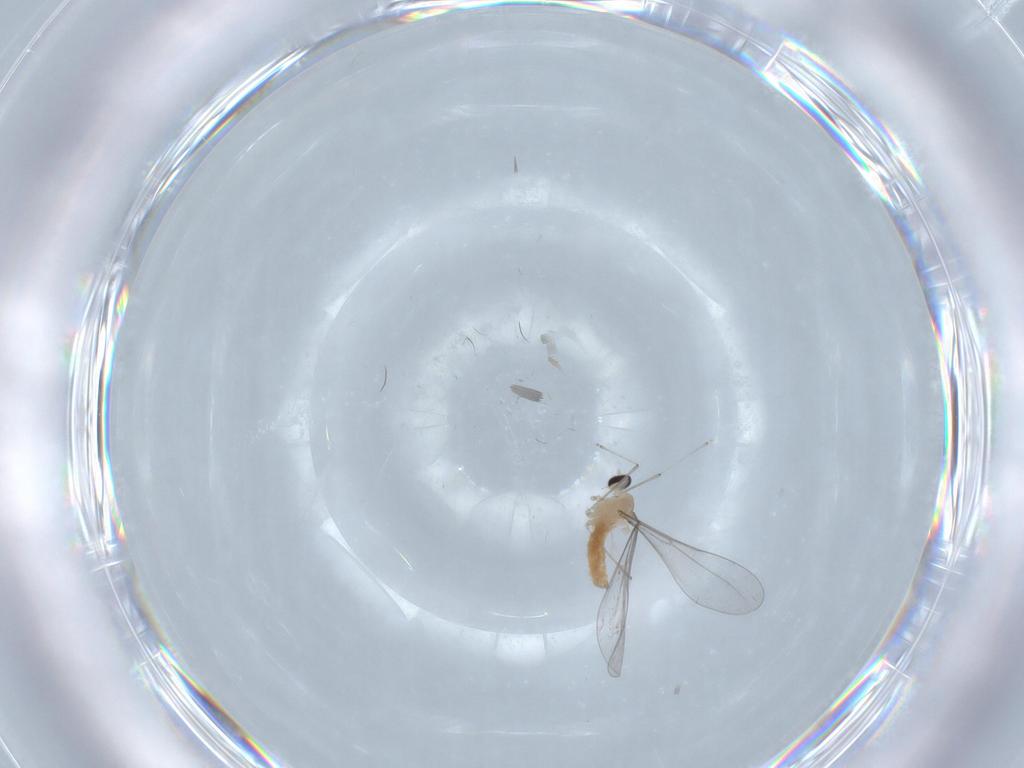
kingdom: Animalia
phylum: Arthropoda
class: Insecta
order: Diptera
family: Cecidomyiidae
